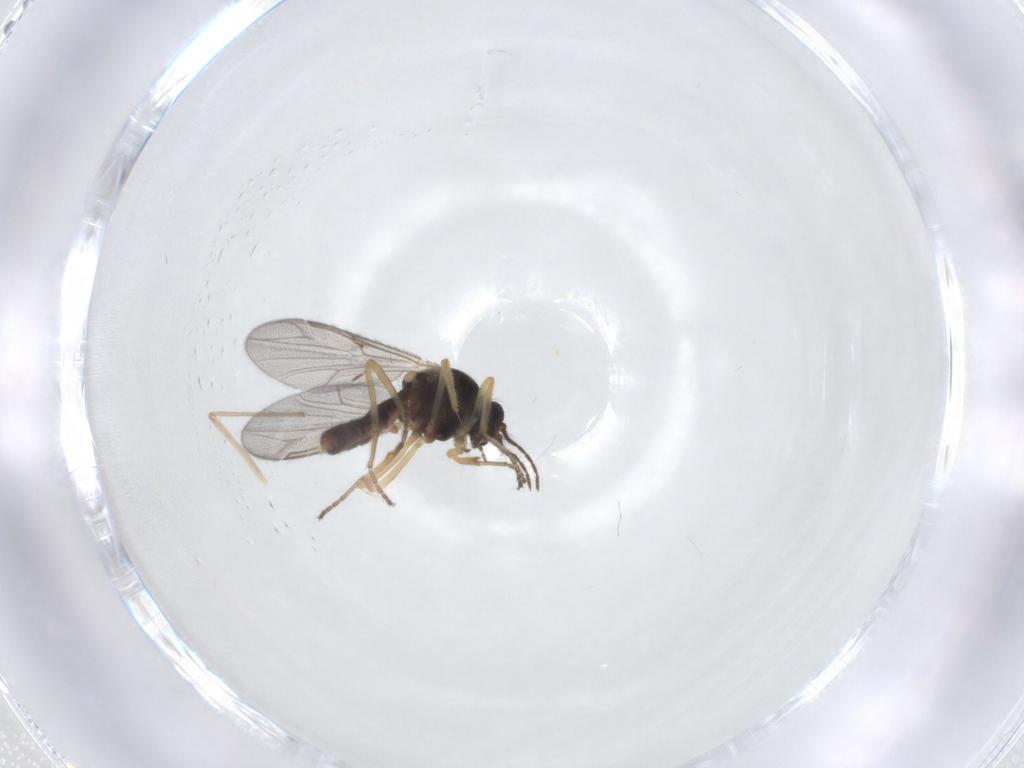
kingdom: Animalia
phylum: Arthropoda
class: Insecta
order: Diptera
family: Ceratopogonidae
